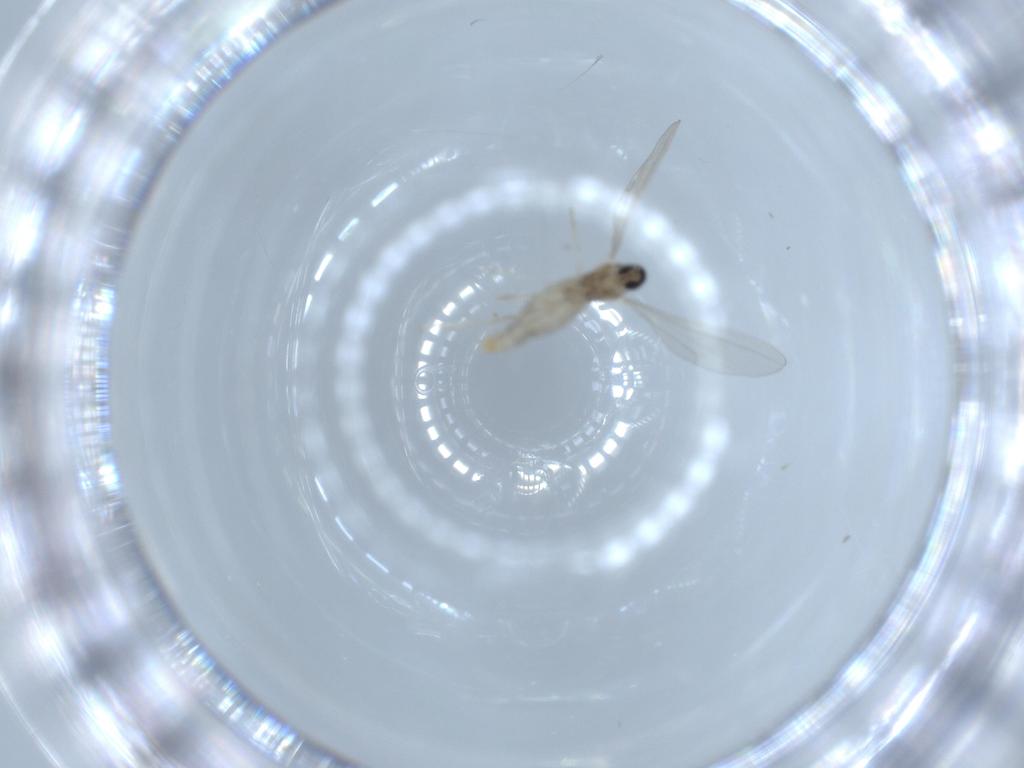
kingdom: Animalia
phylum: Arthropoda
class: Insecta
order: Diptera
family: Cecidomyiidae
